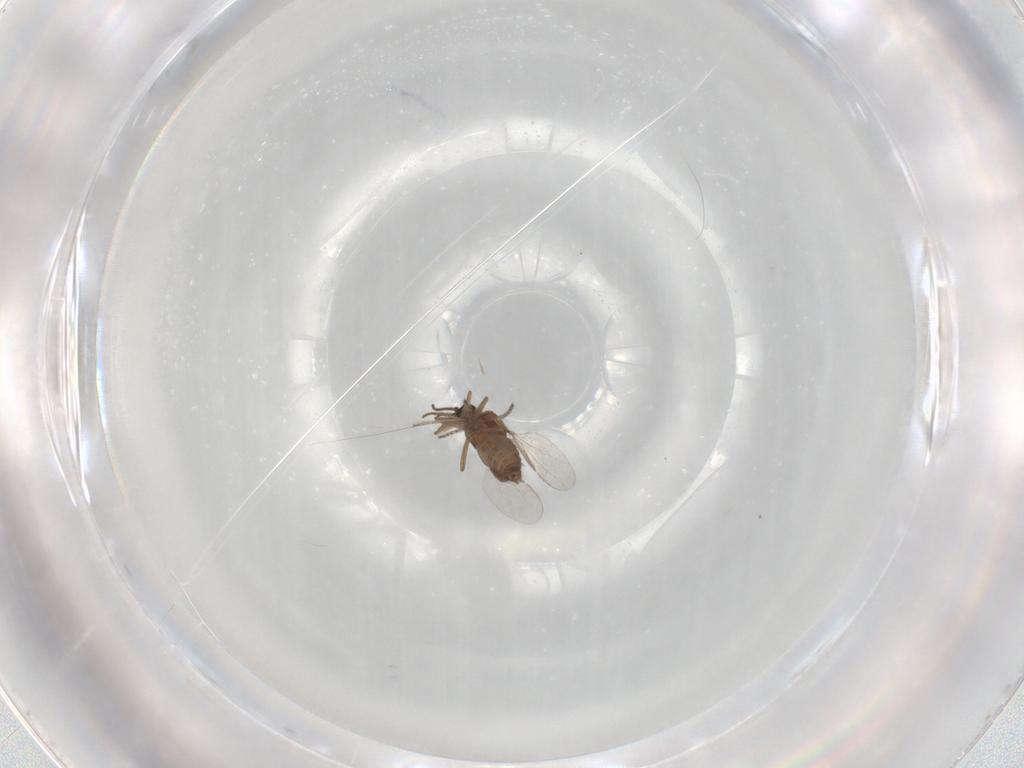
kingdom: Animalia
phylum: Arthropoda
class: Insecta
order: Diptera
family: Ceratopogonidae
